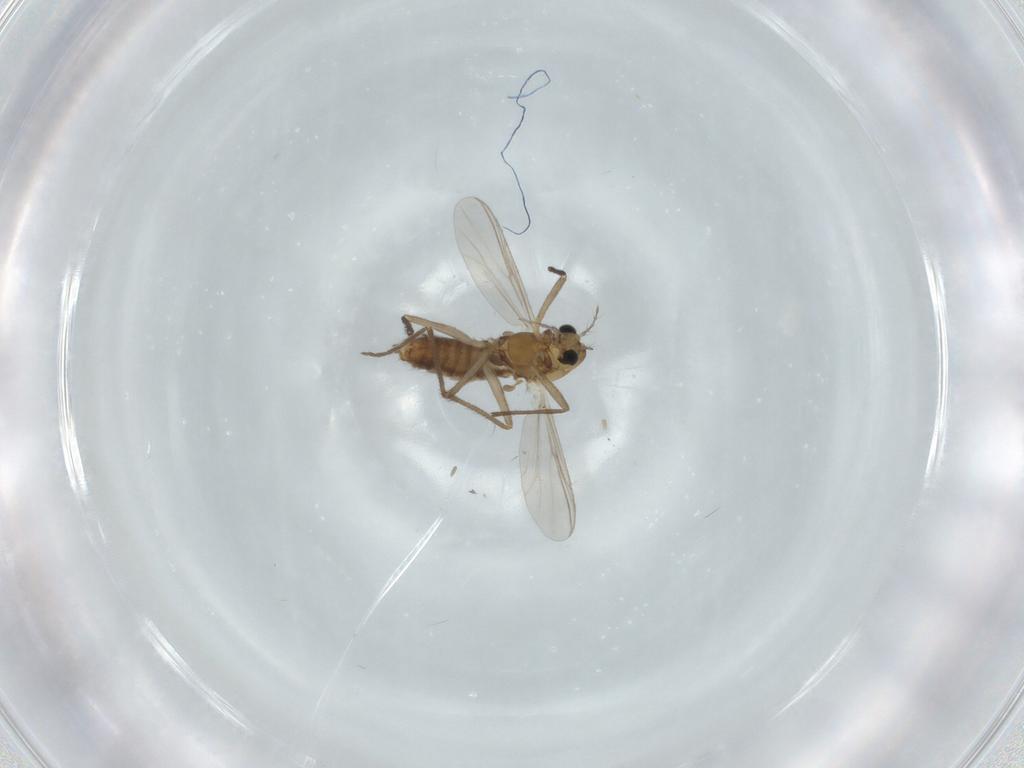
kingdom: Animalia
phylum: Arthropoda
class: Insecta
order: Diptera
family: Chironomidae
